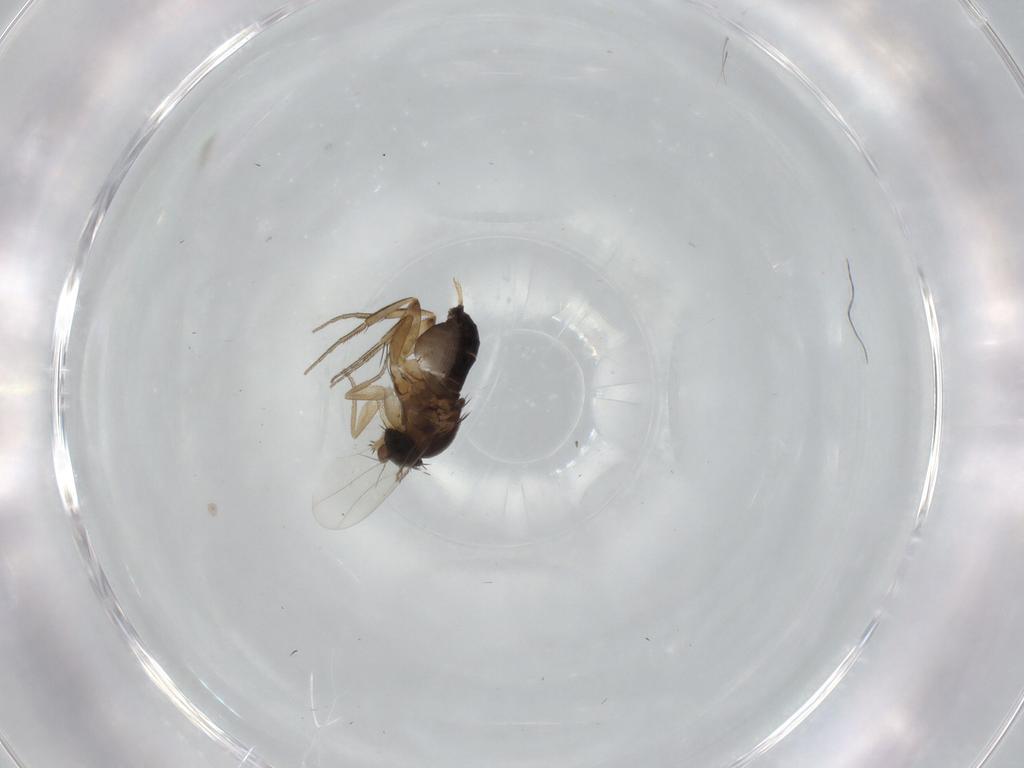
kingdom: Animalia
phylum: Arthropoda
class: Insecta
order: Diptera
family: Phoridae
